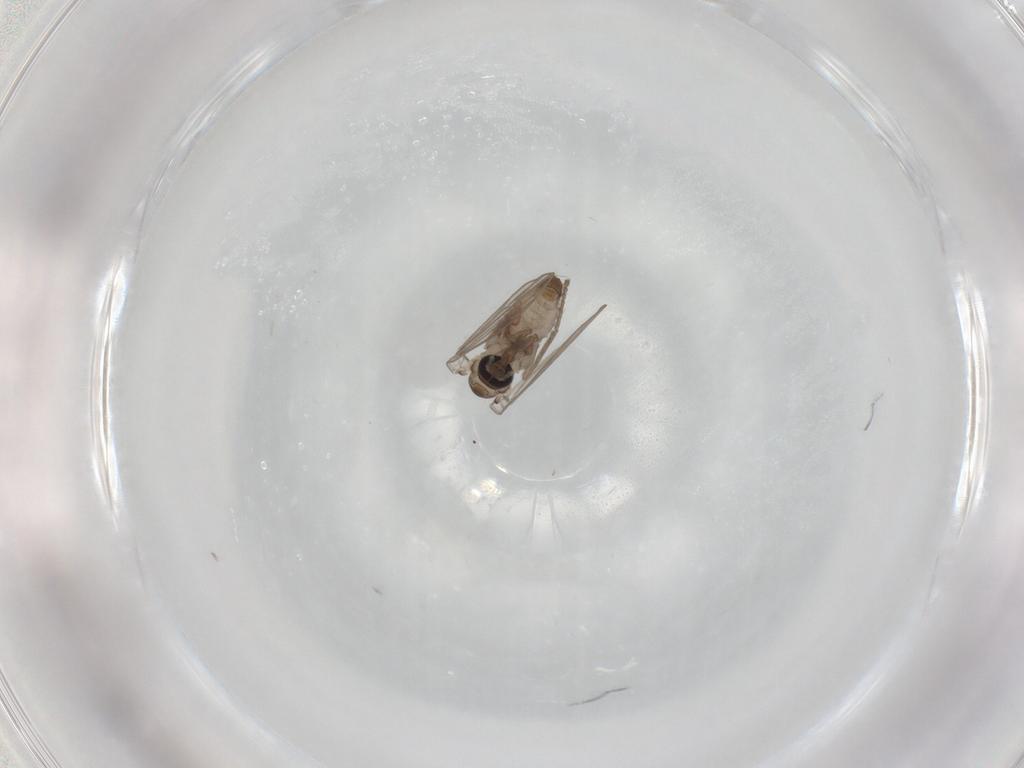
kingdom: Animalia
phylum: Arthropoda
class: Insecta
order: Diptera
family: Psychodidae
